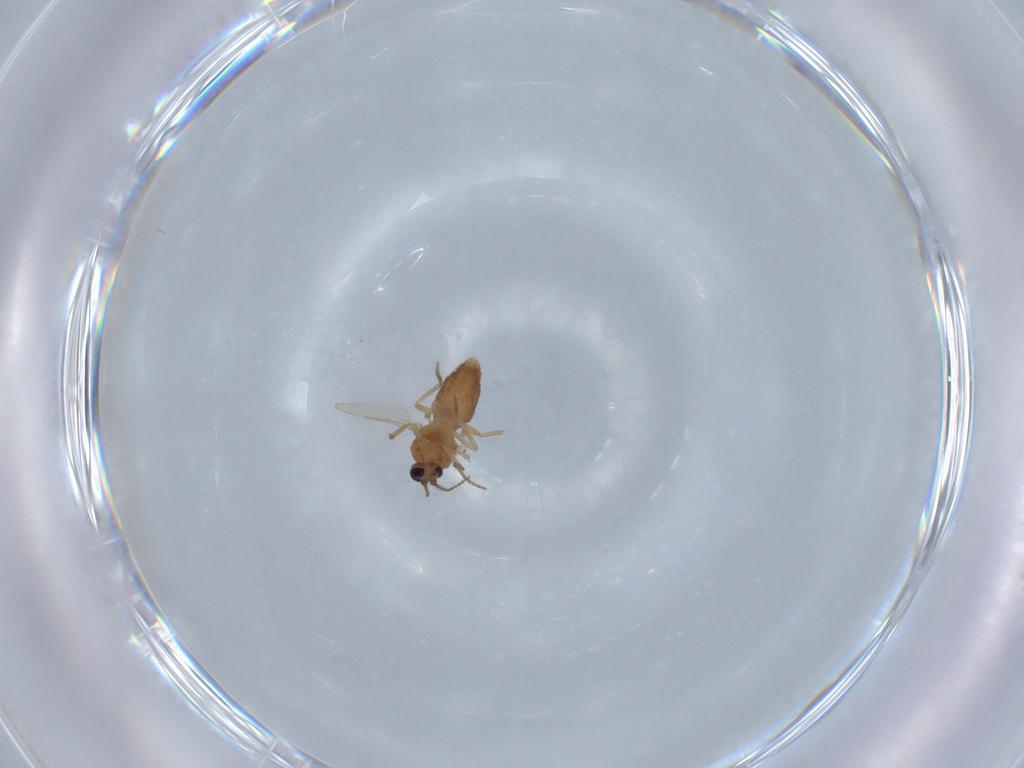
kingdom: Animalia
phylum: Arthropoda
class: Insecta
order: Diptera
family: Ceratopogonidae
